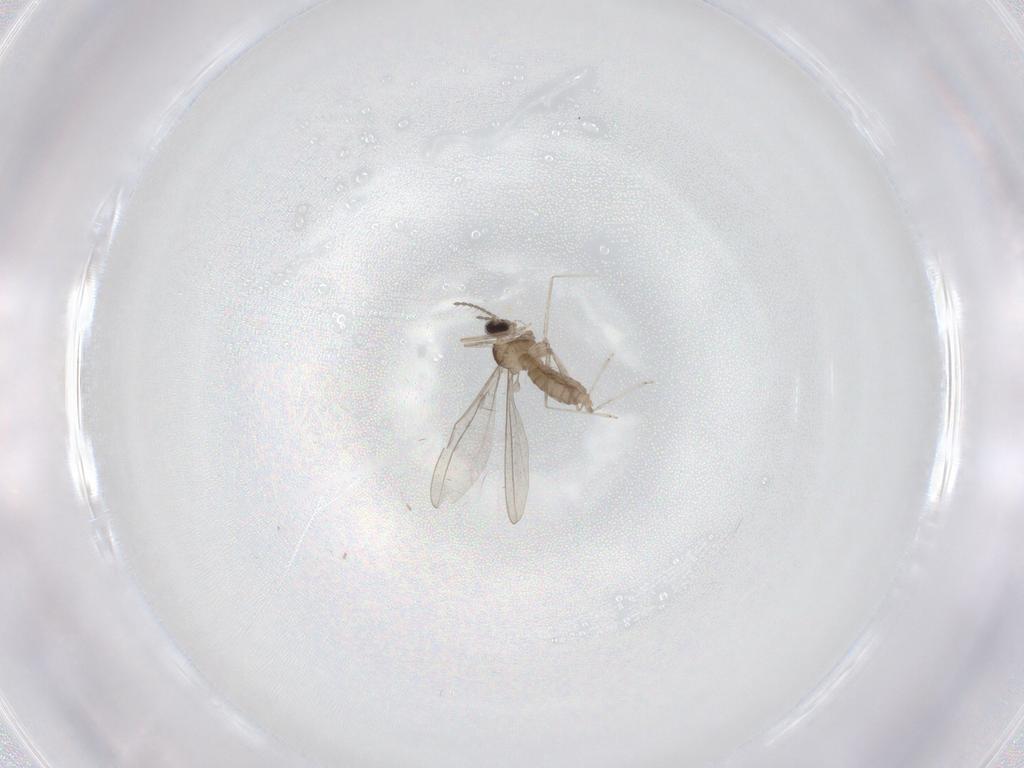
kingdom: Animalia
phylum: Arthropoda
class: Insecta
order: Diptera
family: Cecidomyiidae
